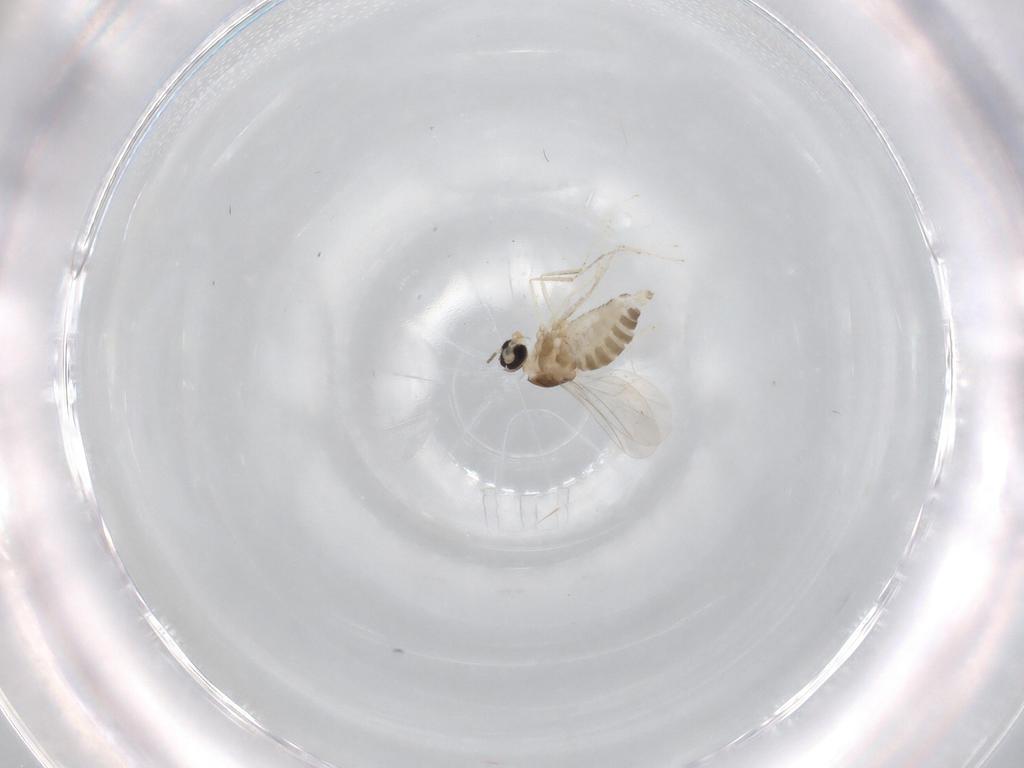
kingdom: Animalia
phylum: Arthropoda
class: Insecta
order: Diptera
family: Cecidomyiidae
